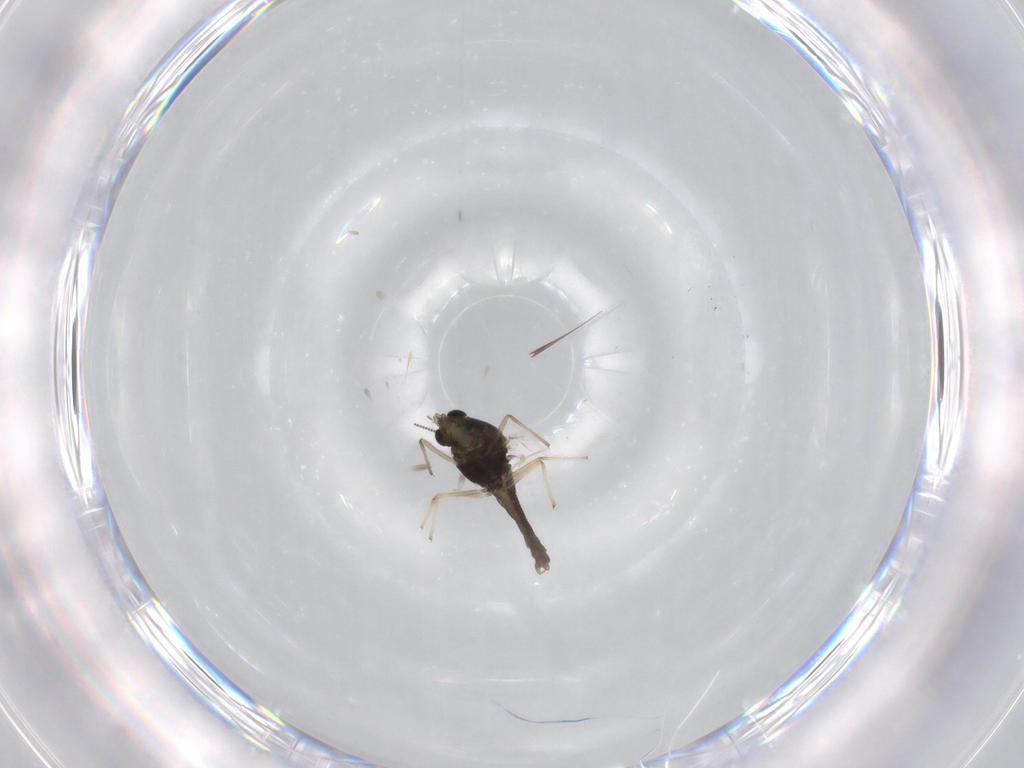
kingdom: Animalia
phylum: Arthropoda
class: Insecta
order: Diptera
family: Chironomidae
